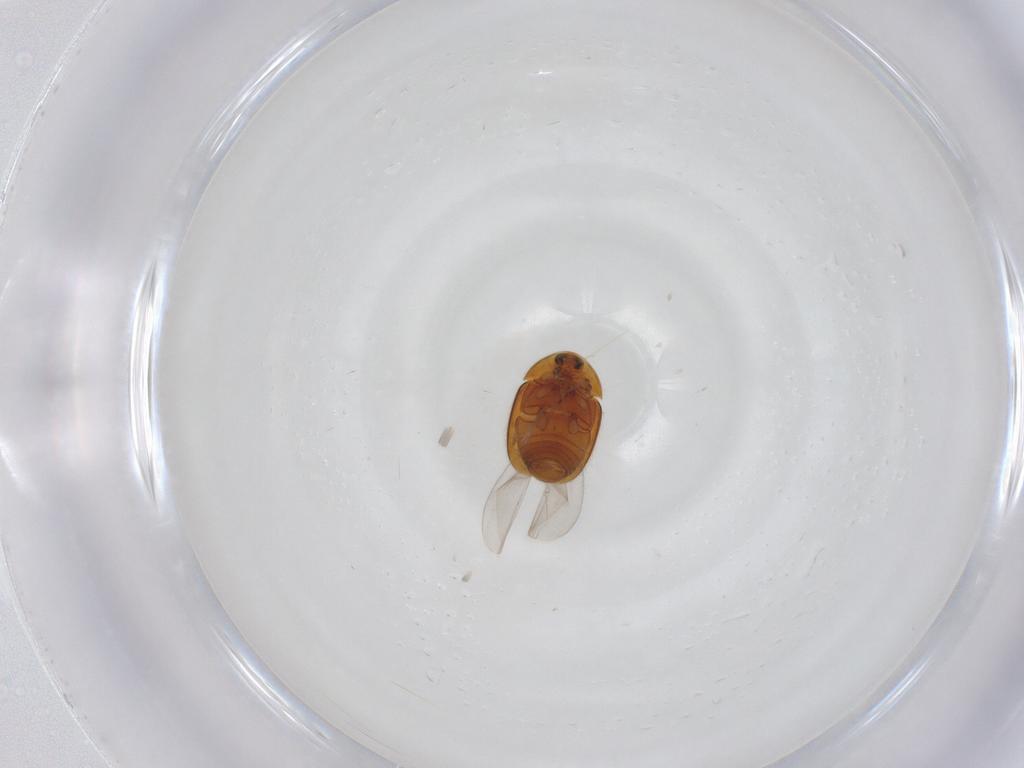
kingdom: Animalia
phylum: Arthropoda
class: Insecta
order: Coleoptera
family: Corylophidae
